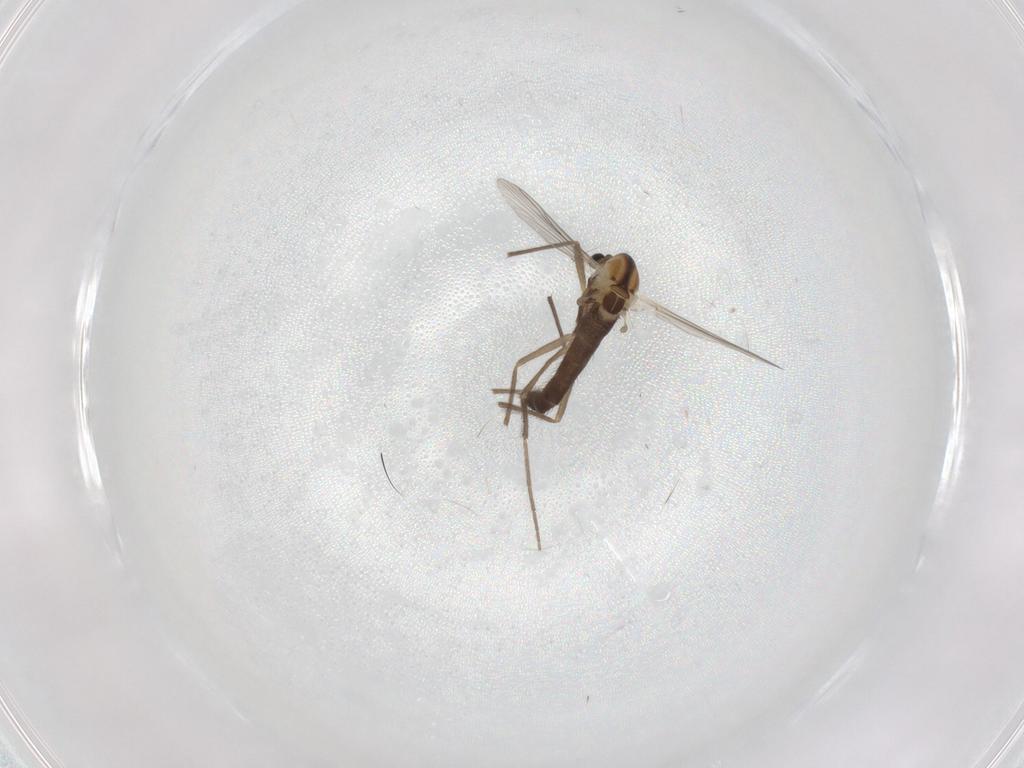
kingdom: Animalia
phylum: Arthropoda
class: Insecta
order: Diptera
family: Chironomidae
